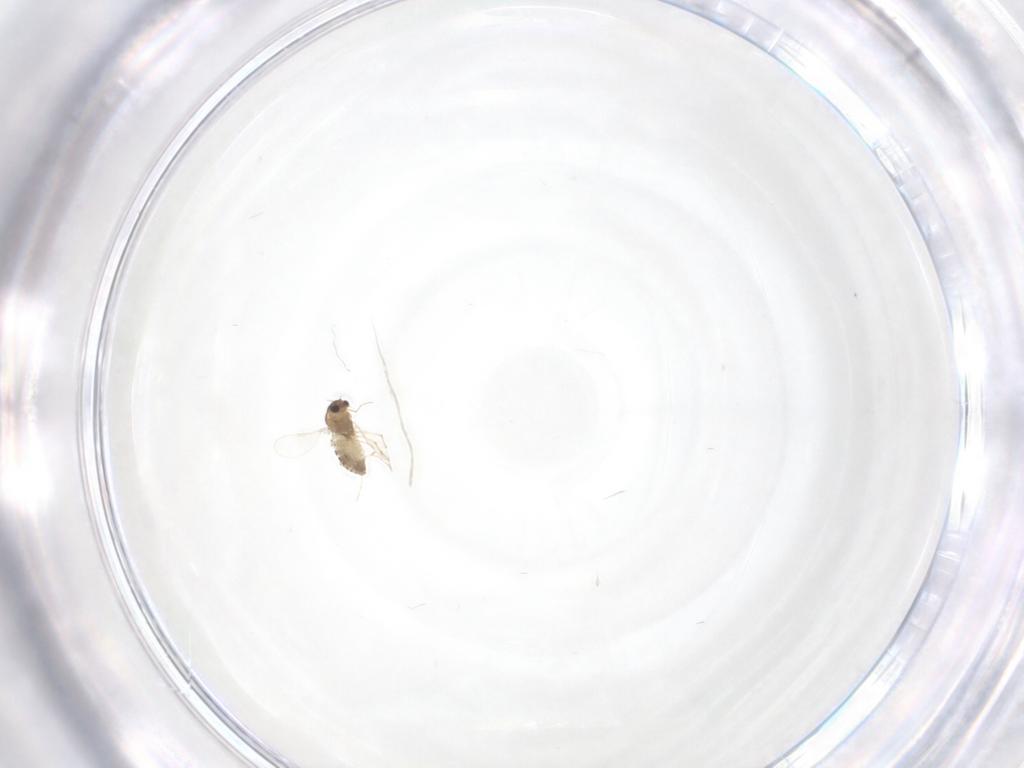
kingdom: Animalia
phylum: Arthropoda
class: Insecta
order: Diptera
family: Chironomidae
